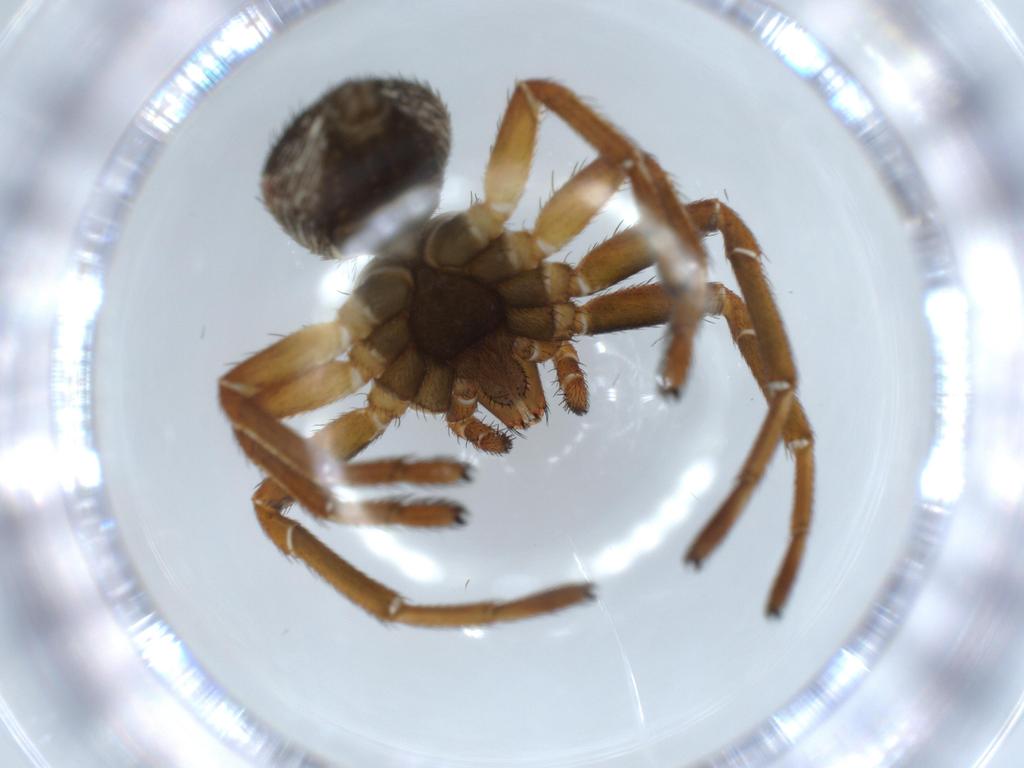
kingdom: Animalia
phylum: Arthropoda
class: Arachnida
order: Araneae
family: Thomisidae
